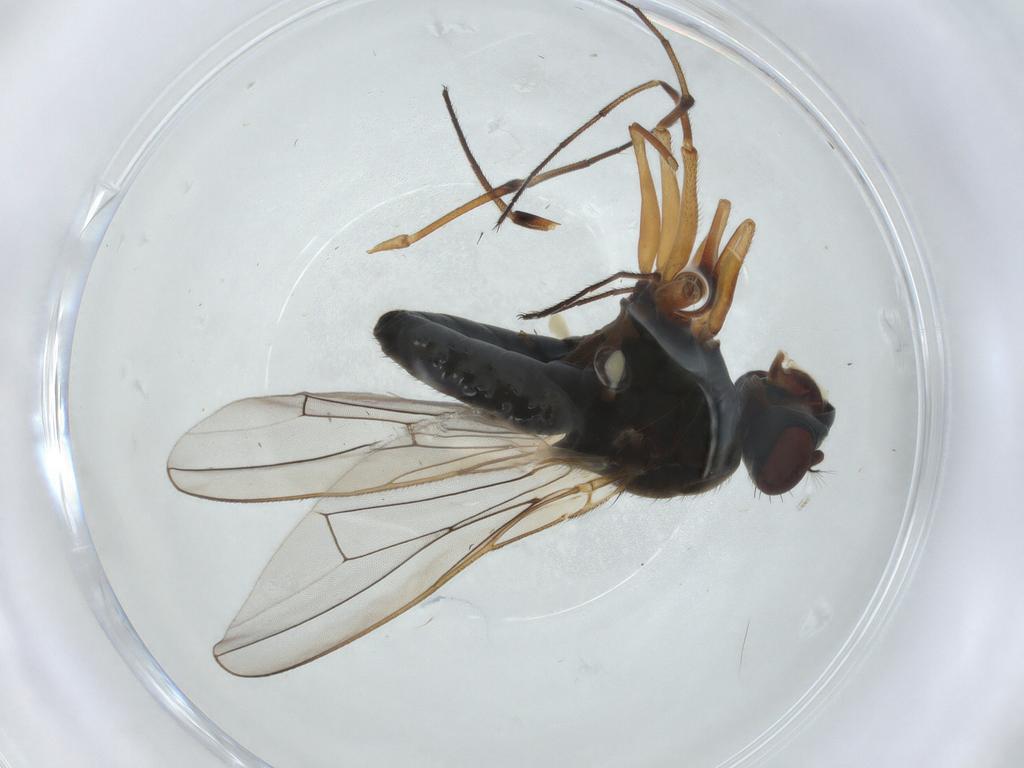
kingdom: Animalia
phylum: Arthropoda
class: Insecta
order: Diptera
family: Ephydridae
